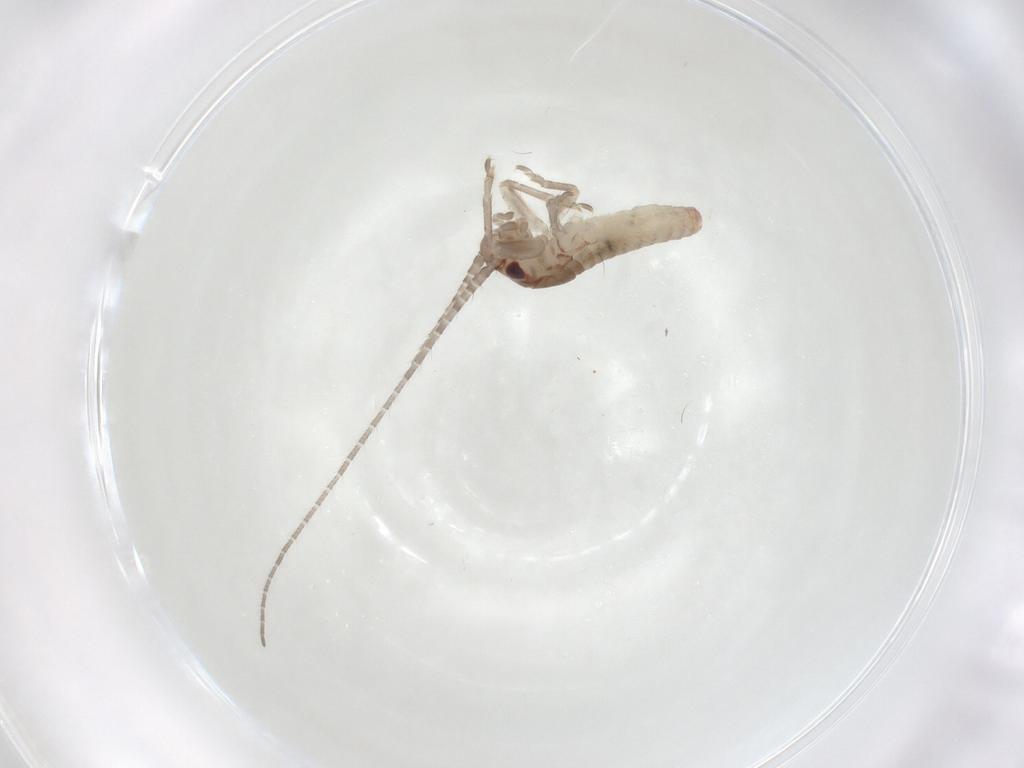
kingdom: Animalia
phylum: Arthropoda
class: Insecta
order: Orthoptera
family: Mogoplistidae
